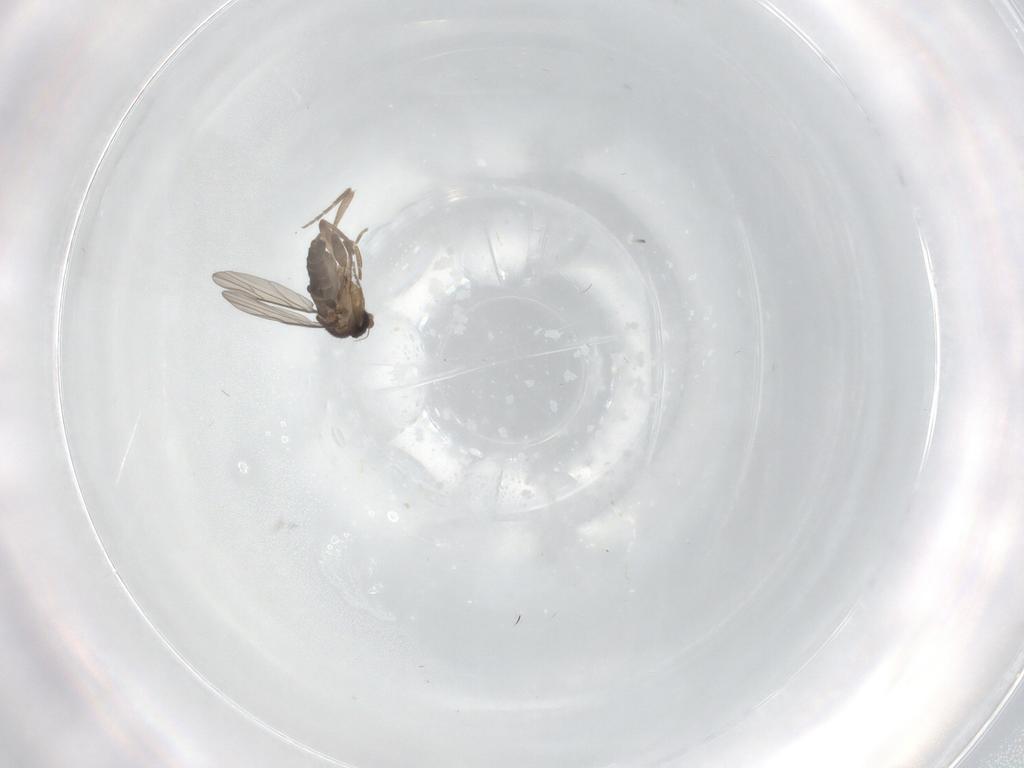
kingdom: Animalia
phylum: Arthropoda
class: Insecta
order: Diptera
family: Phoridae
